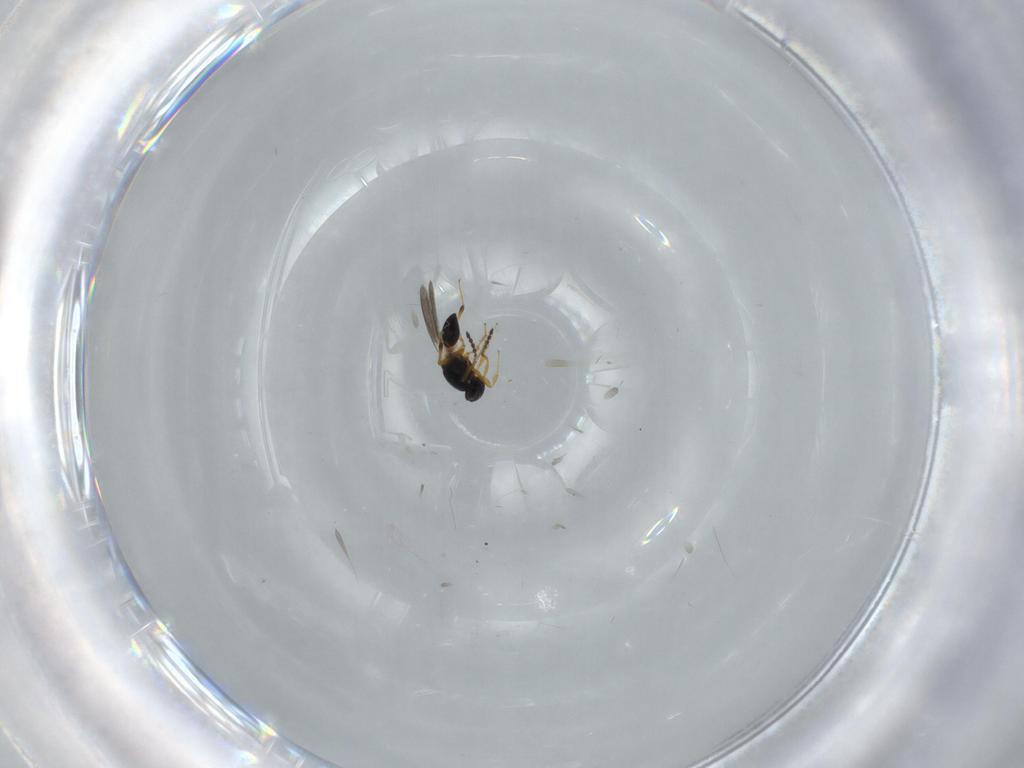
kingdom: Animalia
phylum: Arthropoda
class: Insecta
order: Hymenoptera
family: Platygastridae
